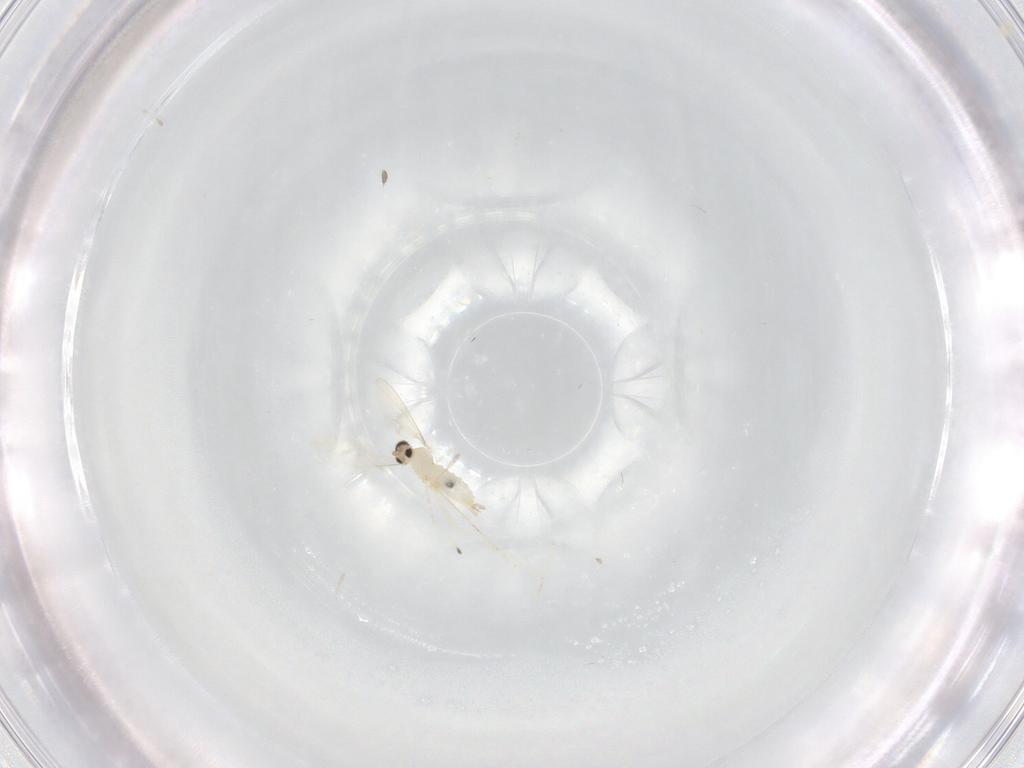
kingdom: Animalia
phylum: Arthropoda
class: Insecta
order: Diptera
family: Cecidomyiidae
